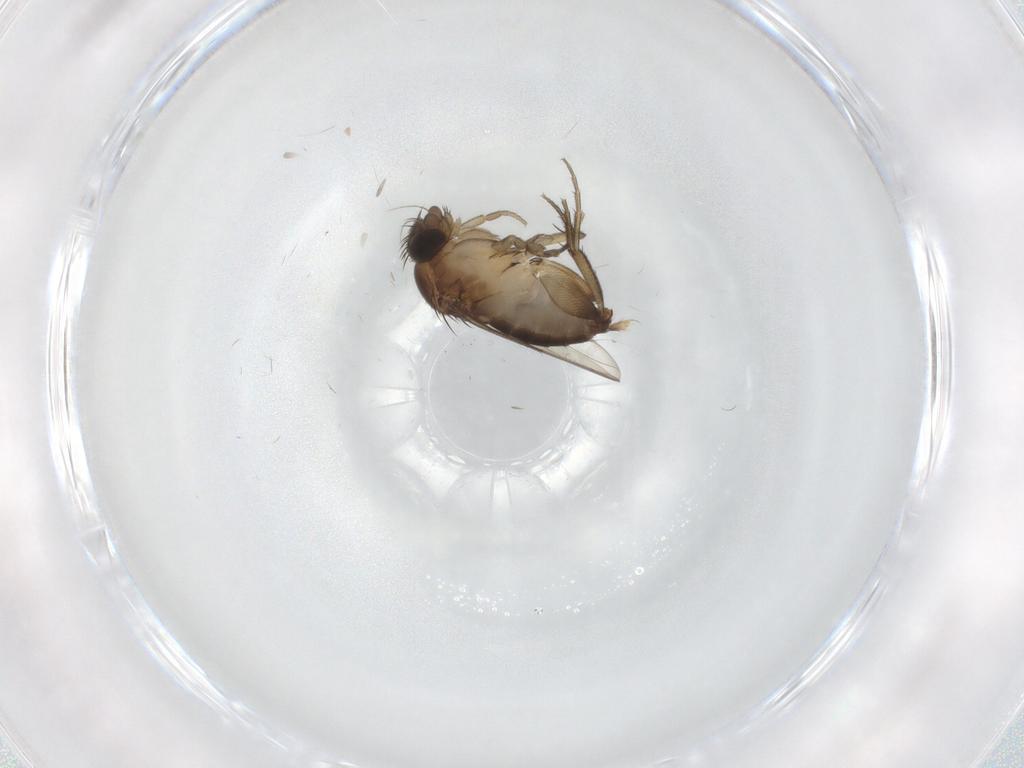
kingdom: Animalia
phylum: Arthropoda
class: Insecta
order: Diptera
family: Phoridae
